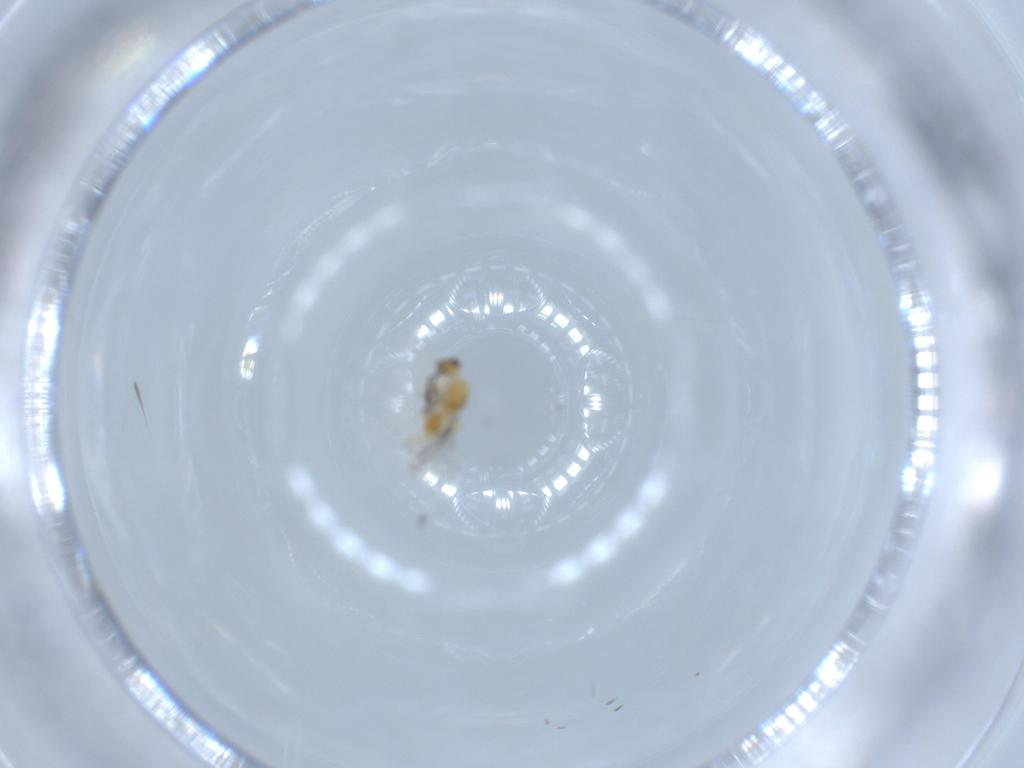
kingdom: Animalia
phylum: Arthropoda
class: Insecta
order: Hymenoptera
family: Mymaridae
